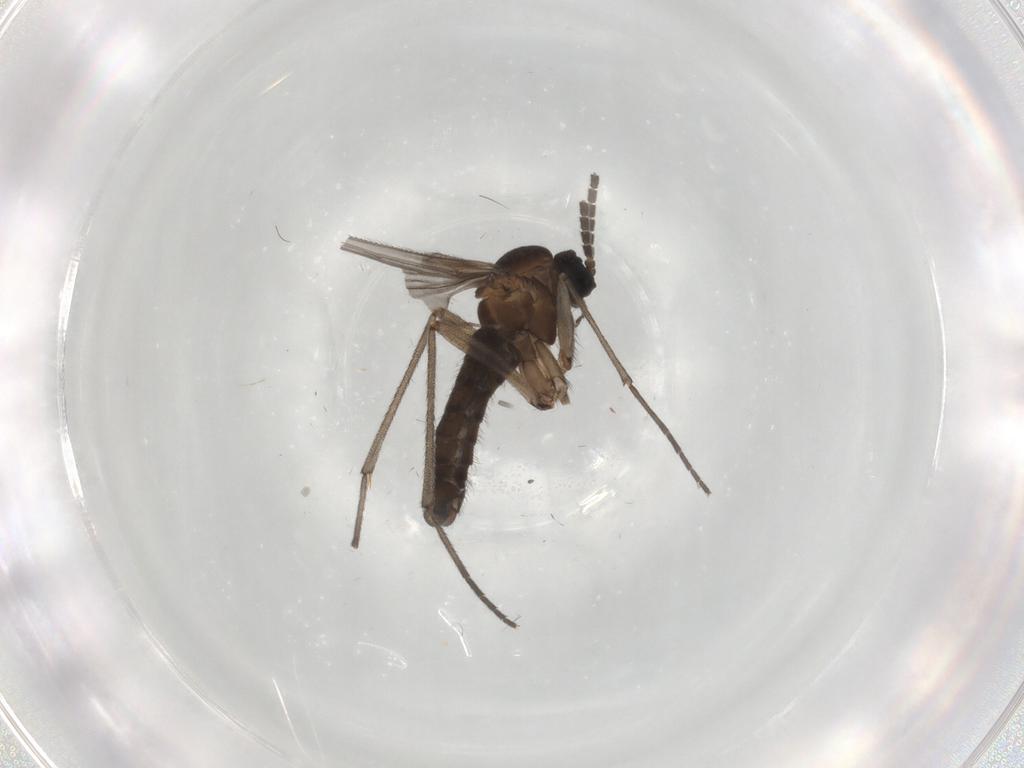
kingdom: Animalia
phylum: Arthropoda
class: Insecta
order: Diptera
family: Sciaridae
